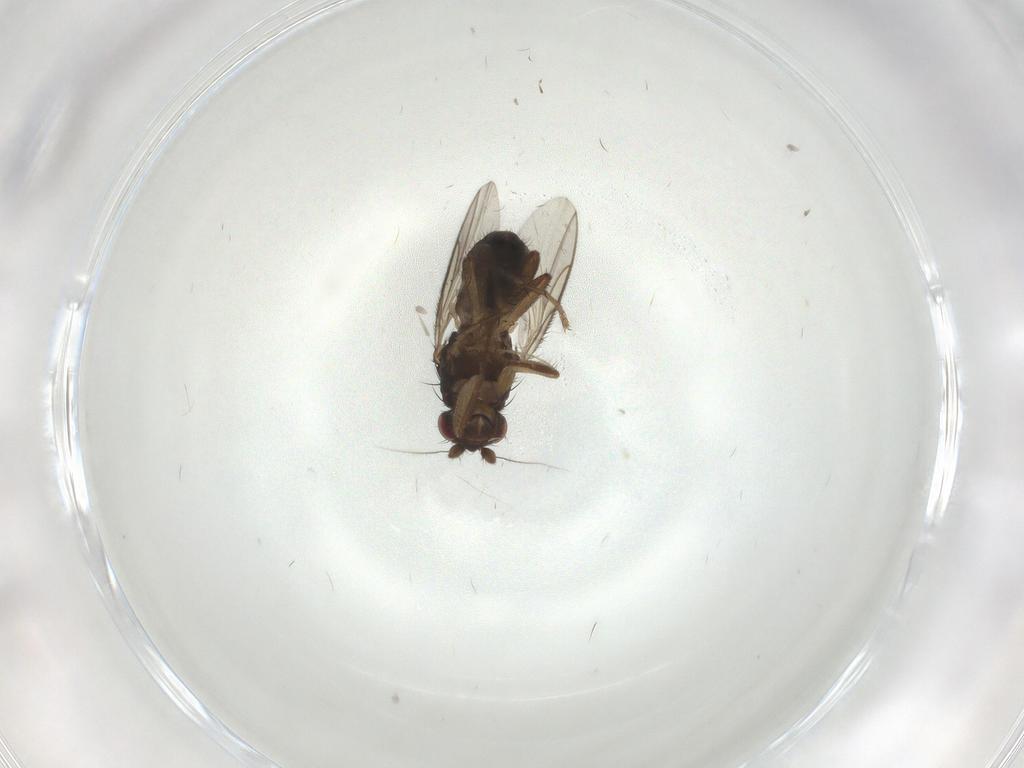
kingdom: Animalia
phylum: Arthropoda
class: Insecta
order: Diptera
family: Sphaeroceridae
